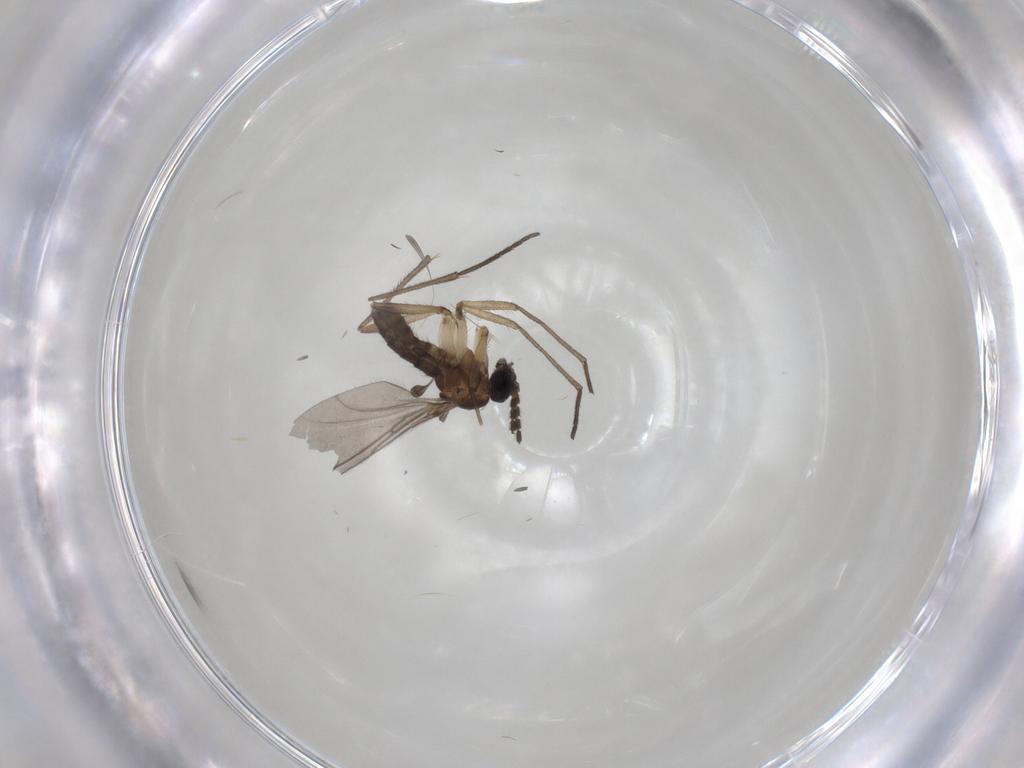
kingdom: Animalia
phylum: Arthropoda
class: Insecta
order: Diptera
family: Sciaridae
